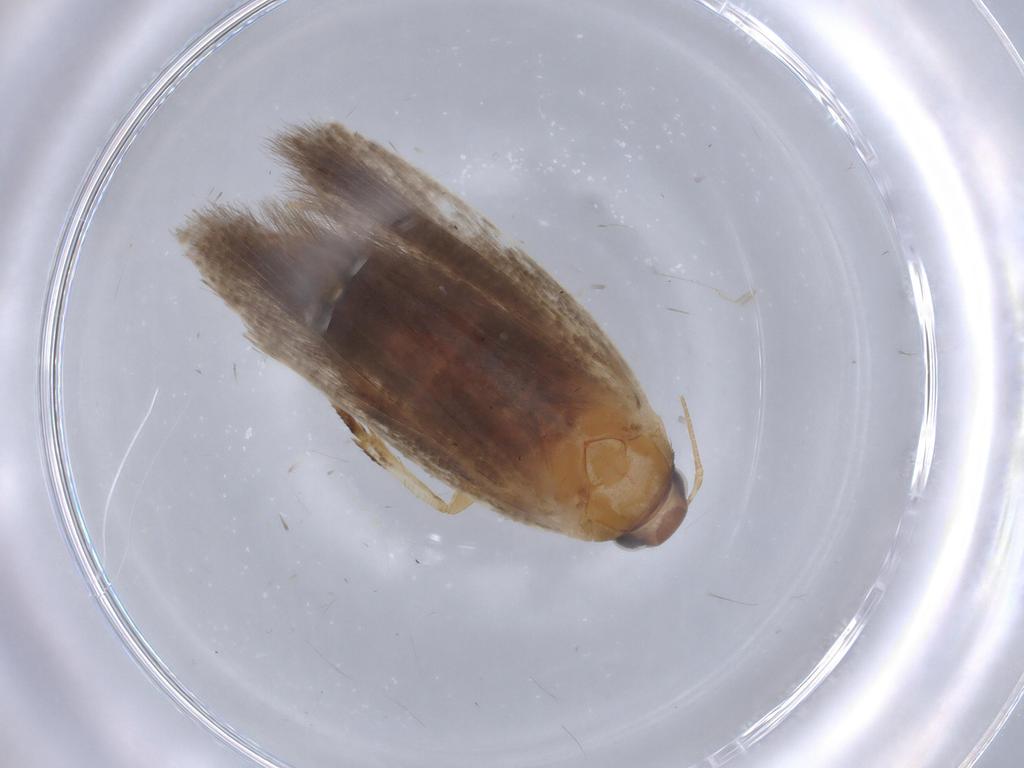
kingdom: Animalia
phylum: Arthropoda
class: Insecta
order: Lepidoptera
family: Gelechiidae
